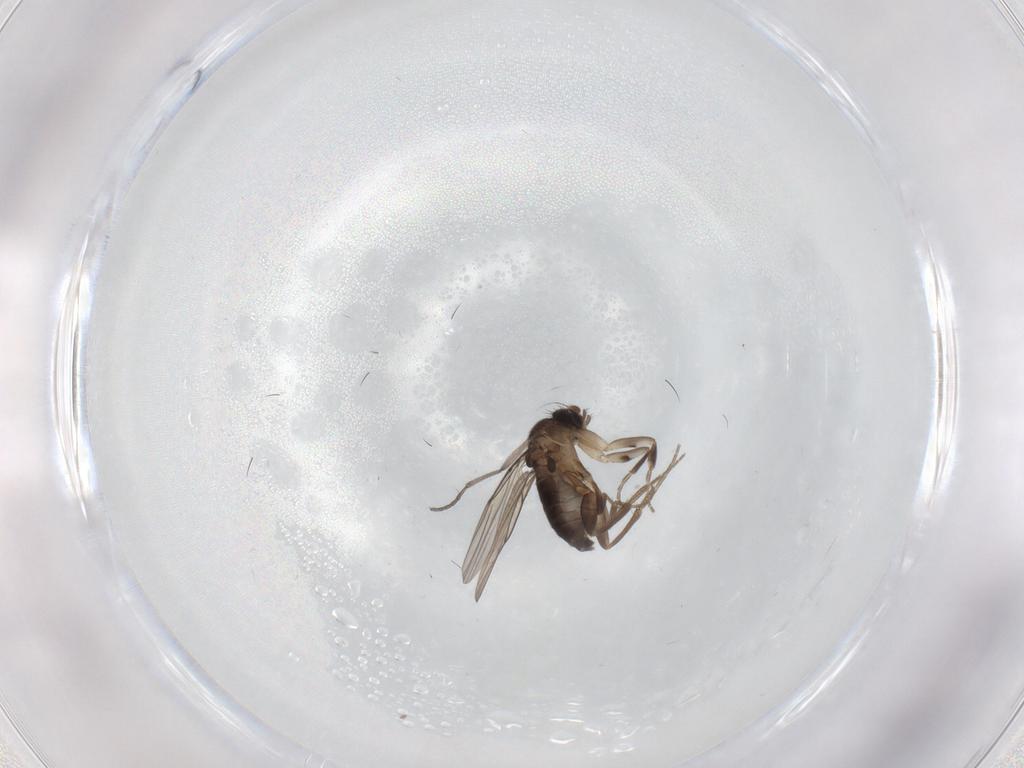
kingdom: Animalia
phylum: Arthropoda
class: Insecta
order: Diptera
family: Sciaridae
